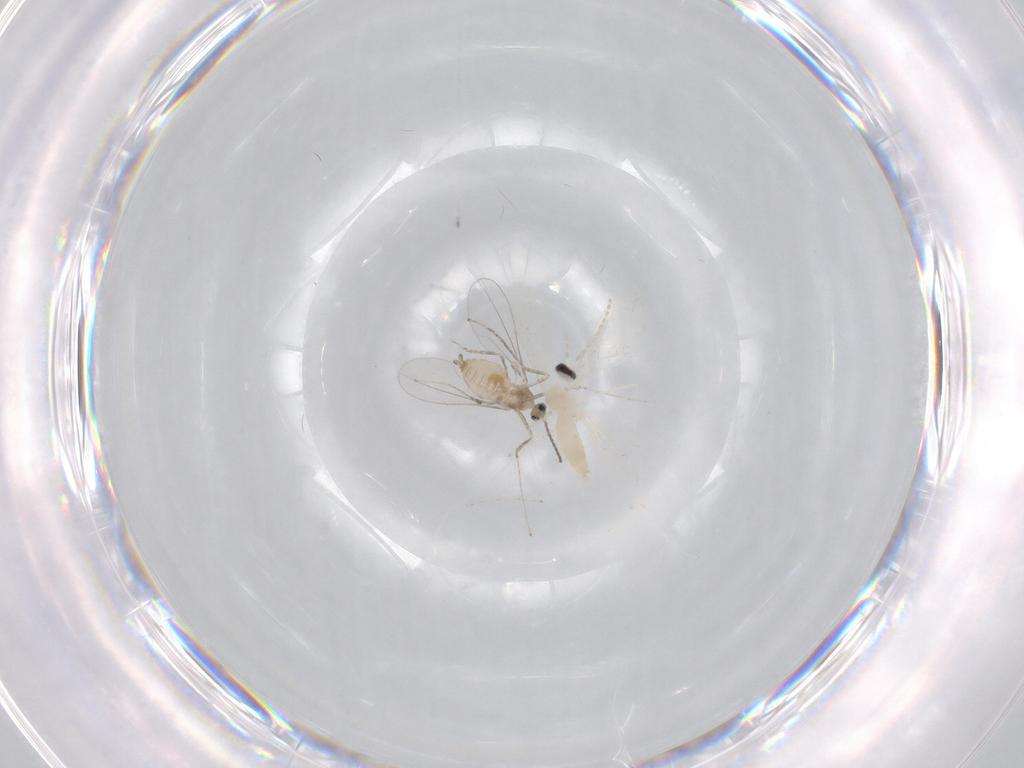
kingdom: Animalia
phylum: Arthropoda
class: Insecta
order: Diptera
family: Cecidomyiidae
